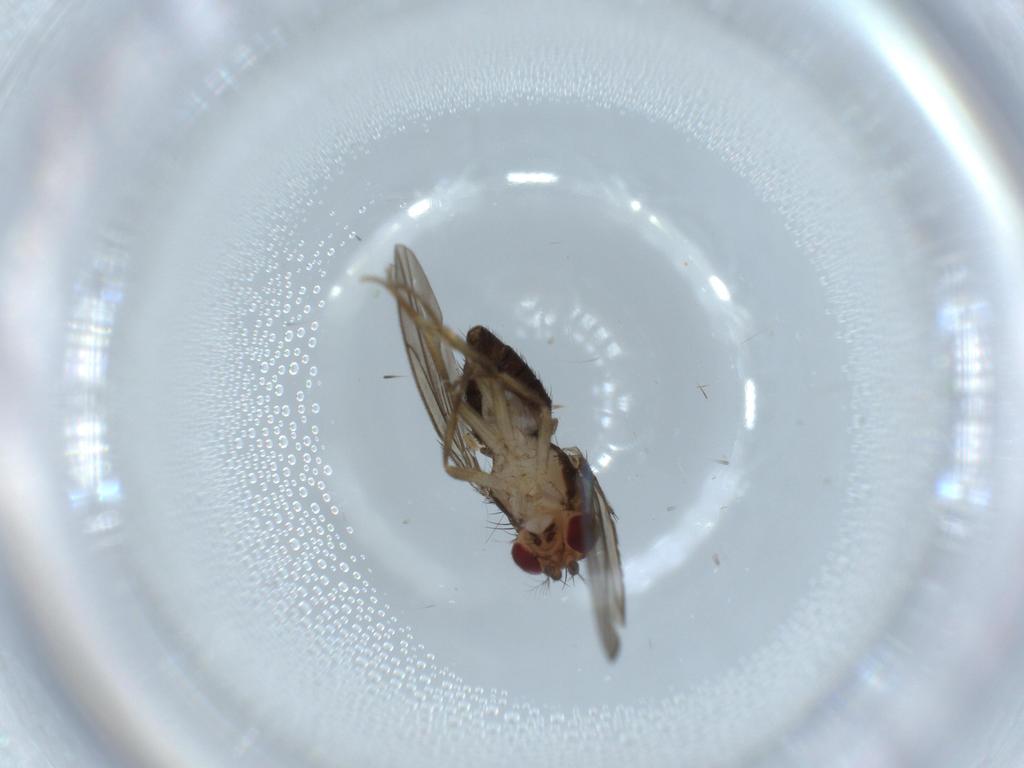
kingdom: Animalia
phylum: Arthropoda
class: Insecta
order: Diptera
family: Drosophilidae
